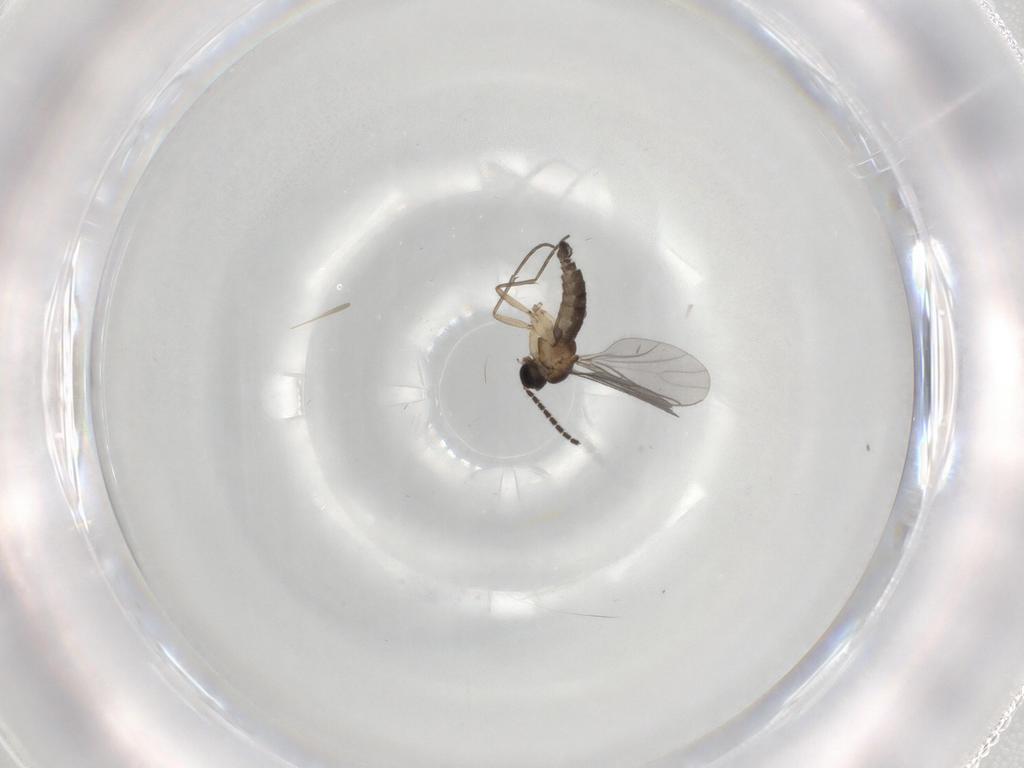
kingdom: Animalia
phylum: Arthropoda
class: Insecta
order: Diptera
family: Sciaridae
